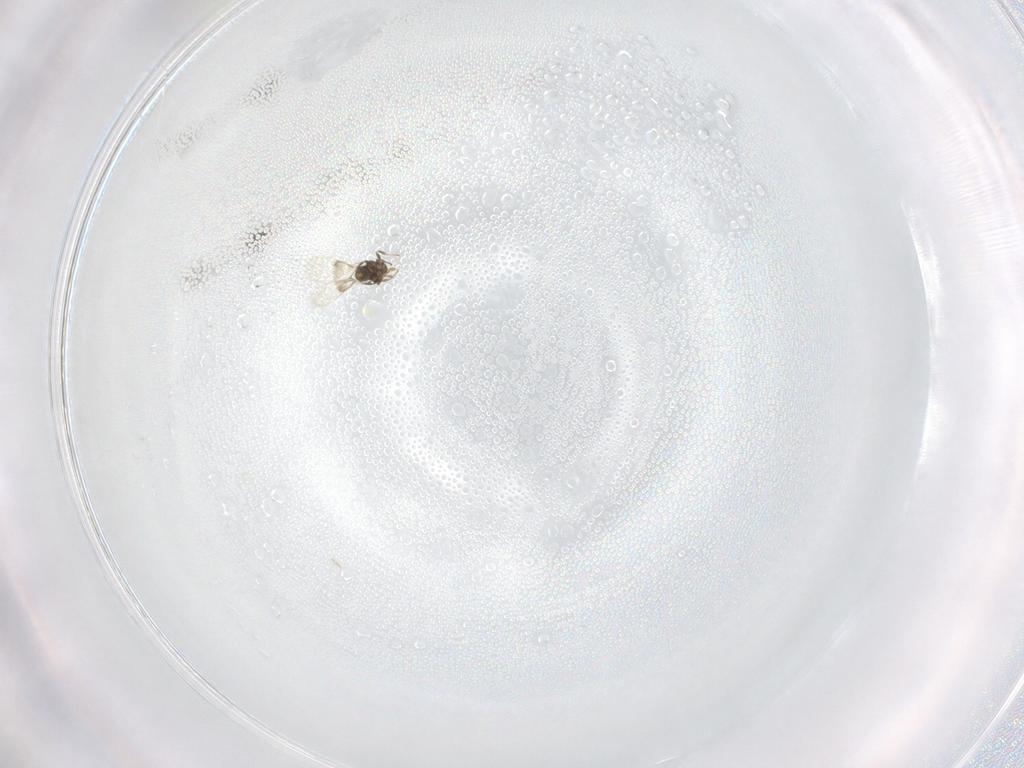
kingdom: Animalia
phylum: Arthropoda
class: Insecta
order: Hymenoptera
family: Trichogrammatidae
